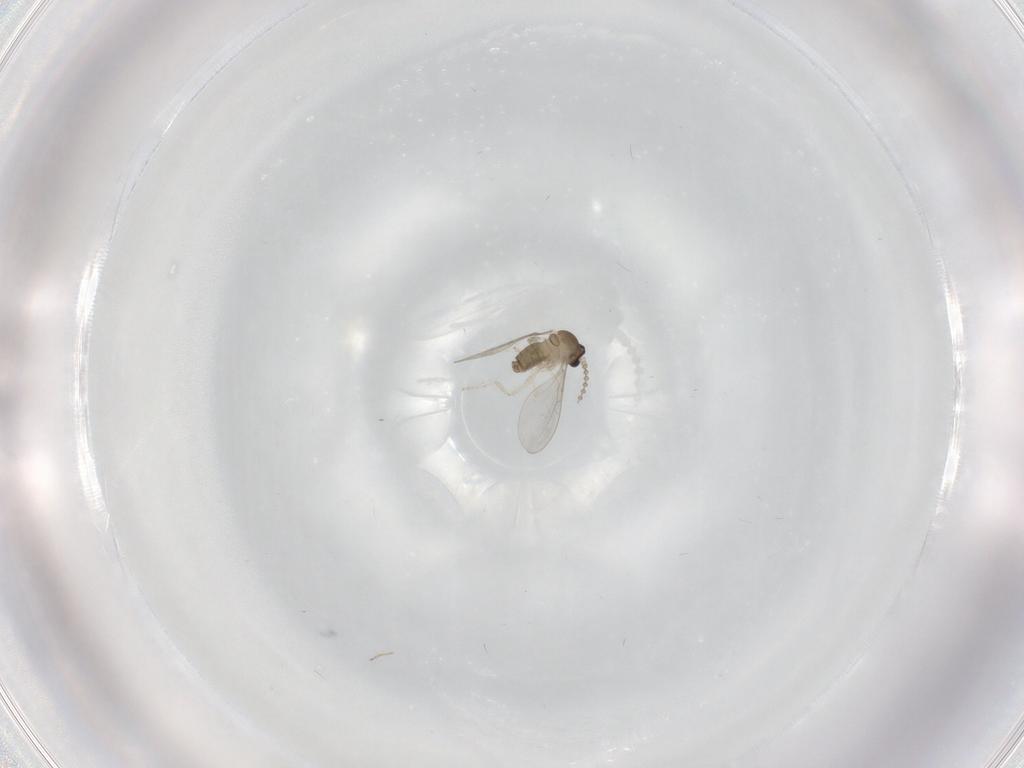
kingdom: Animalia
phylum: Arthropoda
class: Insecta
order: Diptera
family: Cecidomyiidae
